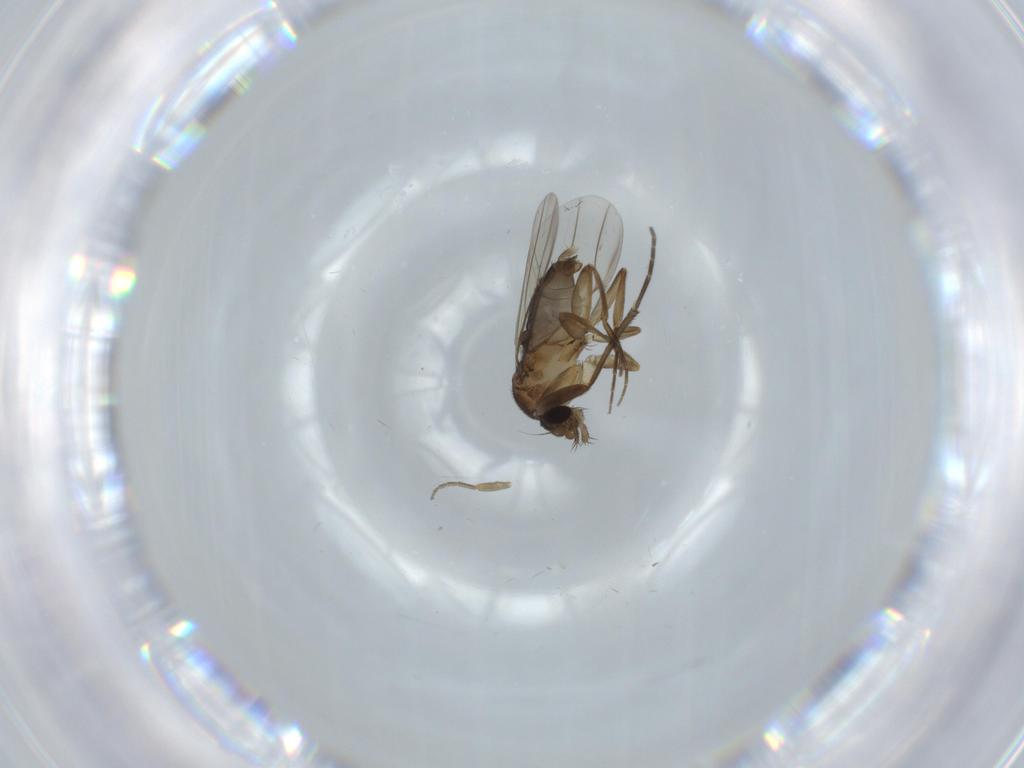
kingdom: Animalia
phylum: Arthropoda
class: Insecta
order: Diptera
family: Phoridae
